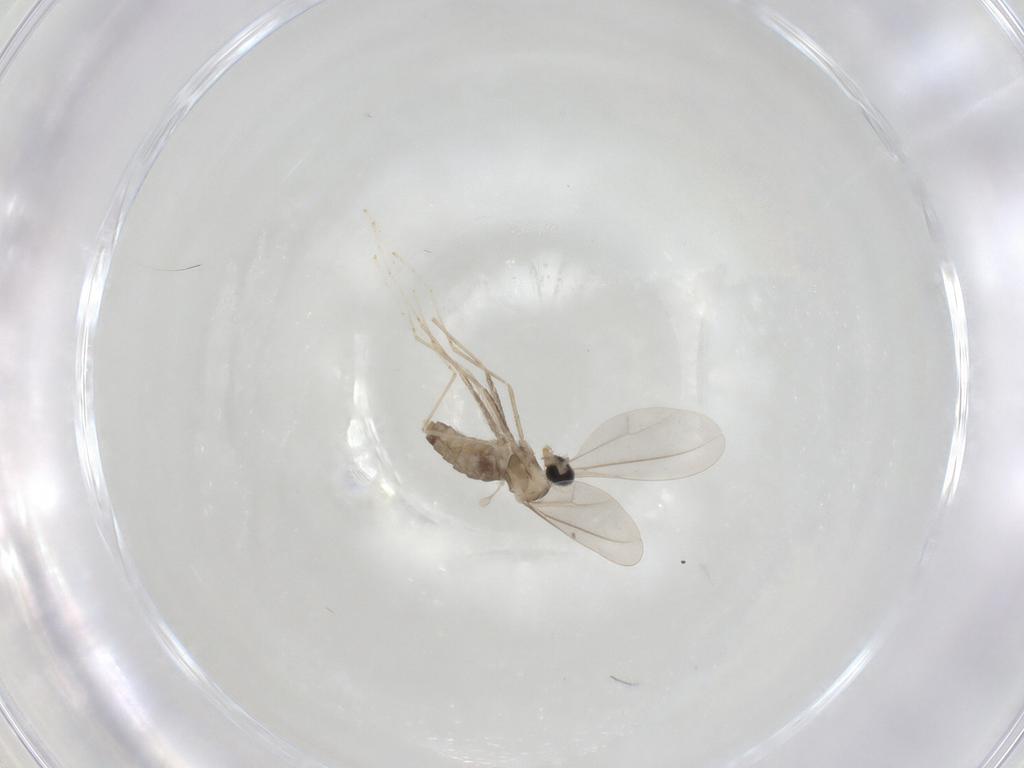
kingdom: Animalia
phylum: Arthropoda
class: Insecta
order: Diptera
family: Cecidomyiidae
